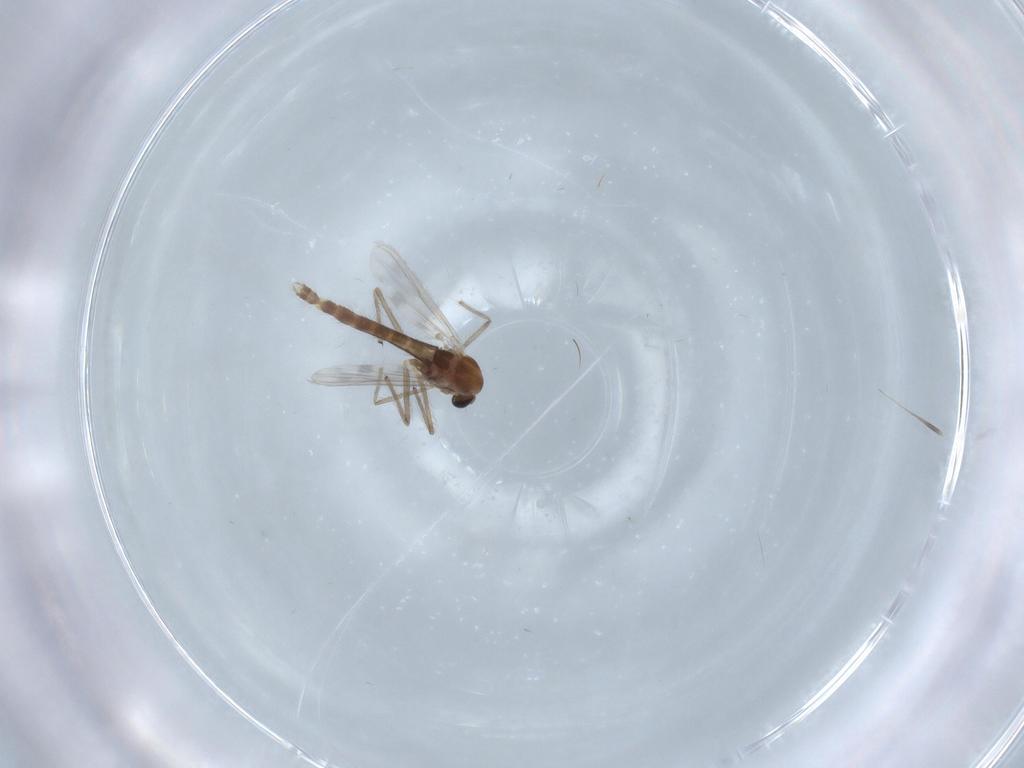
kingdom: Animalia
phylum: Arthropoda
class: Insecta
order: Diptera
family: Chironomidae
